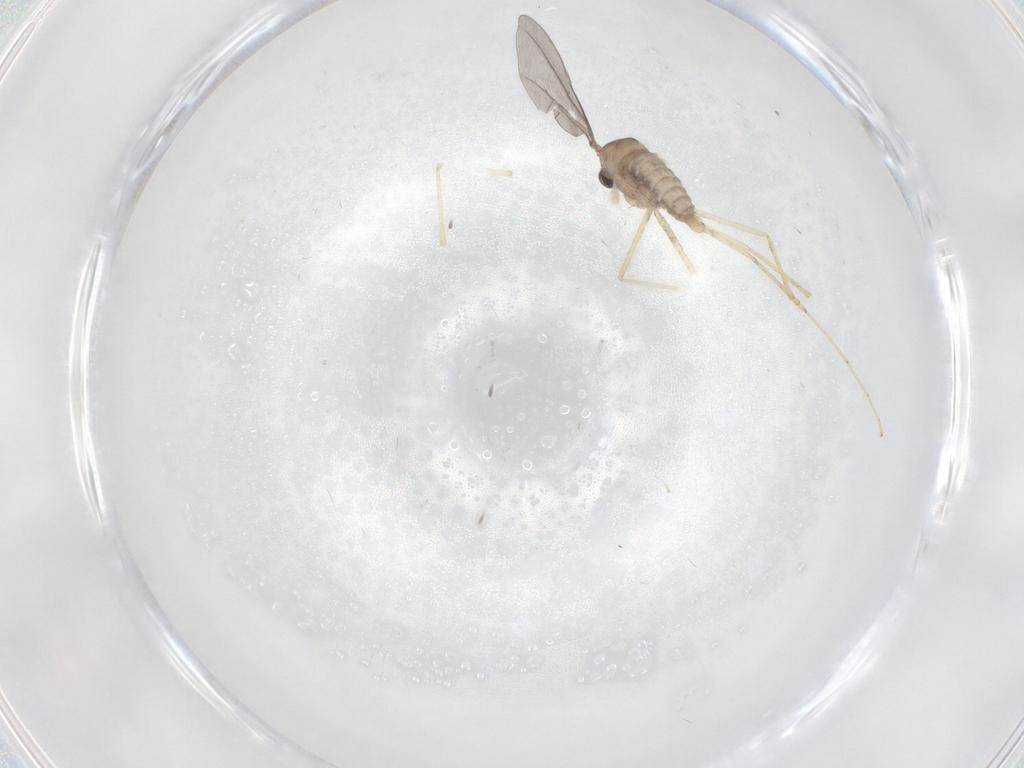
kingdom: Animalia
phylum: Arthropoda
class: Insecta
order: Diptera
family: Cecidomyiidae
